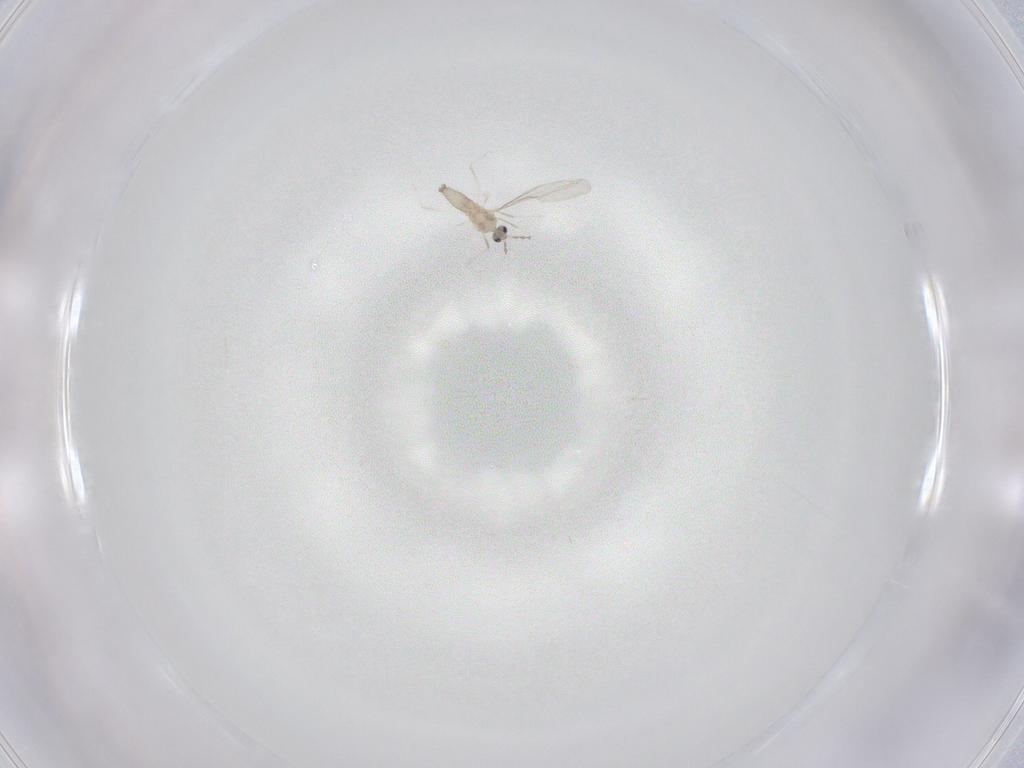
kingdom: Animalia
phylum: Arthropoda
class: Insecta
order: Diptera
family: Cecidomyiidae
